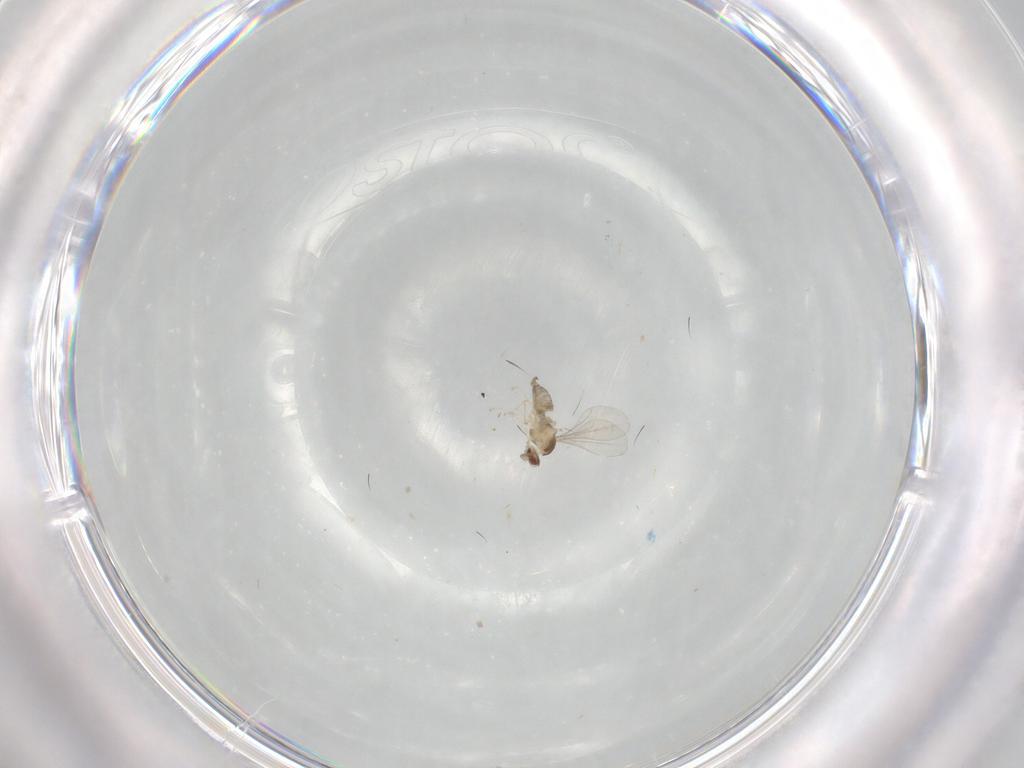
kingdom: Animalia
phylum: Arthropoda
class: Insecta
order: Diptera
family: Cecidomyiidae
